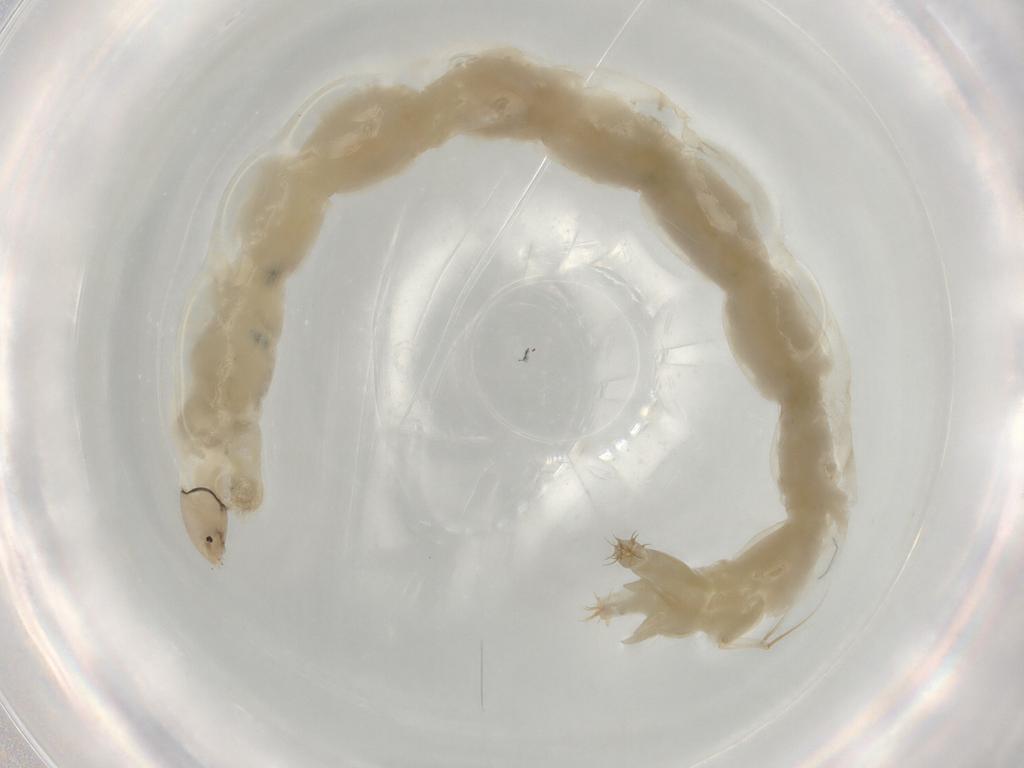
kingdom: Animalia
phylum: Arthropoda
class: Insecta
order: Diptera
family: Chironomidae
